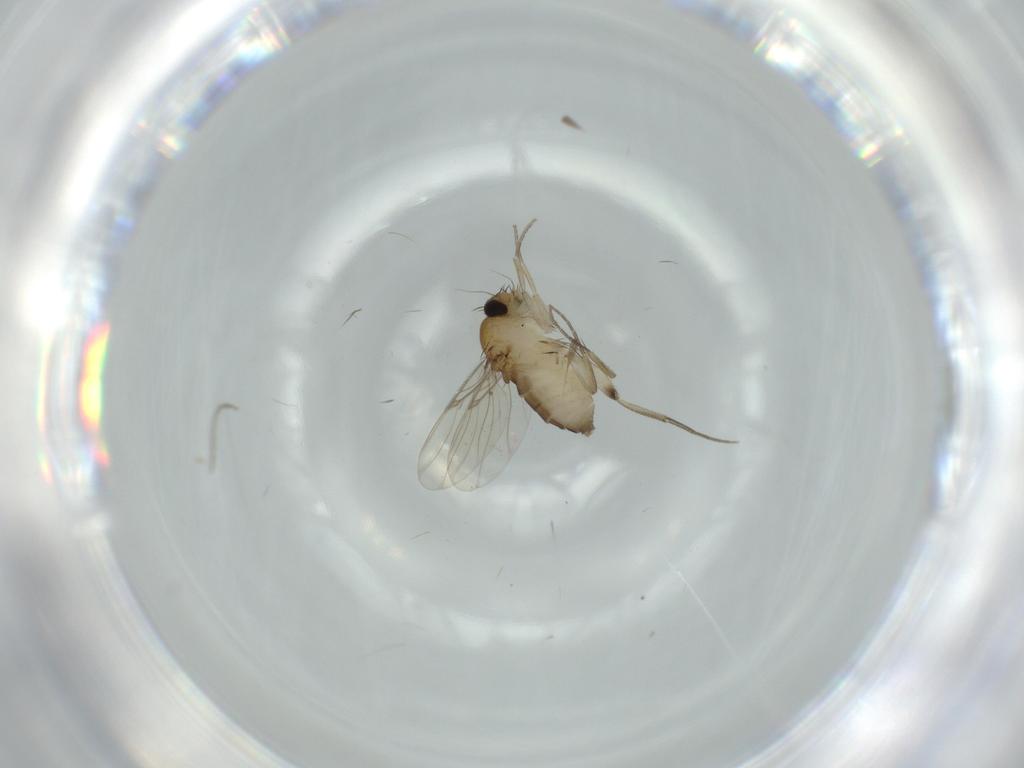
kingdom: Animalia
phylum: Arthropoda
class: Insecta
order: Diptera
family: Phoridae
